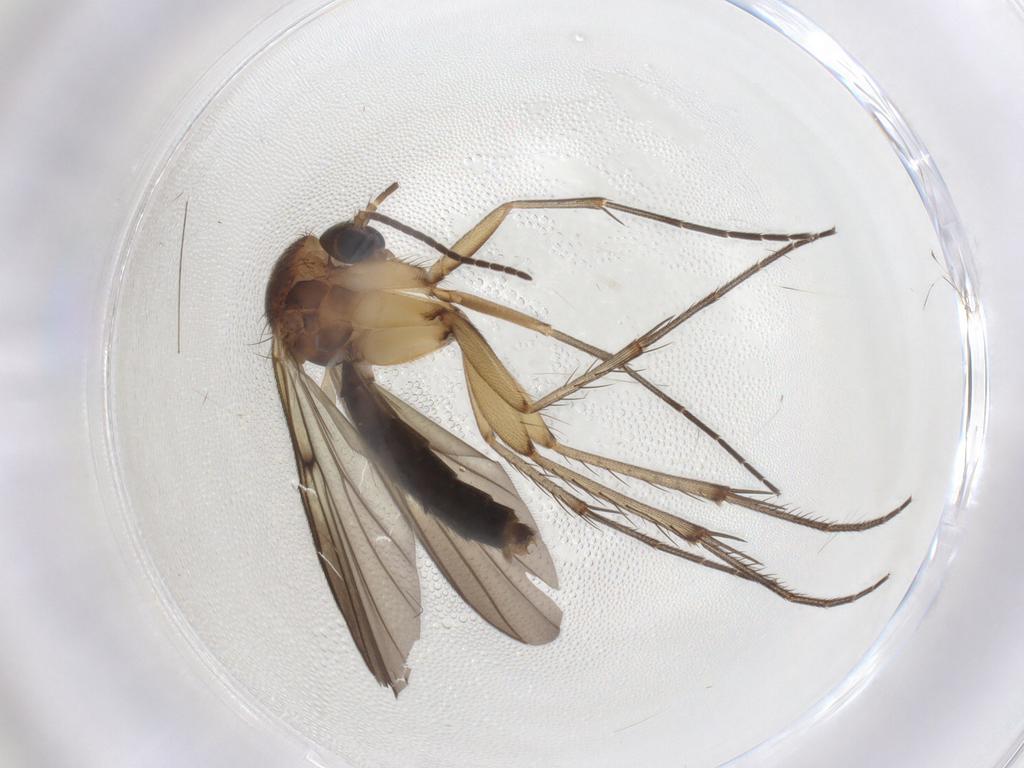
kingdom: Animalia
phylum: Arthropoda
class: Insecta
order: Diptera
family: Mycetophilidae
